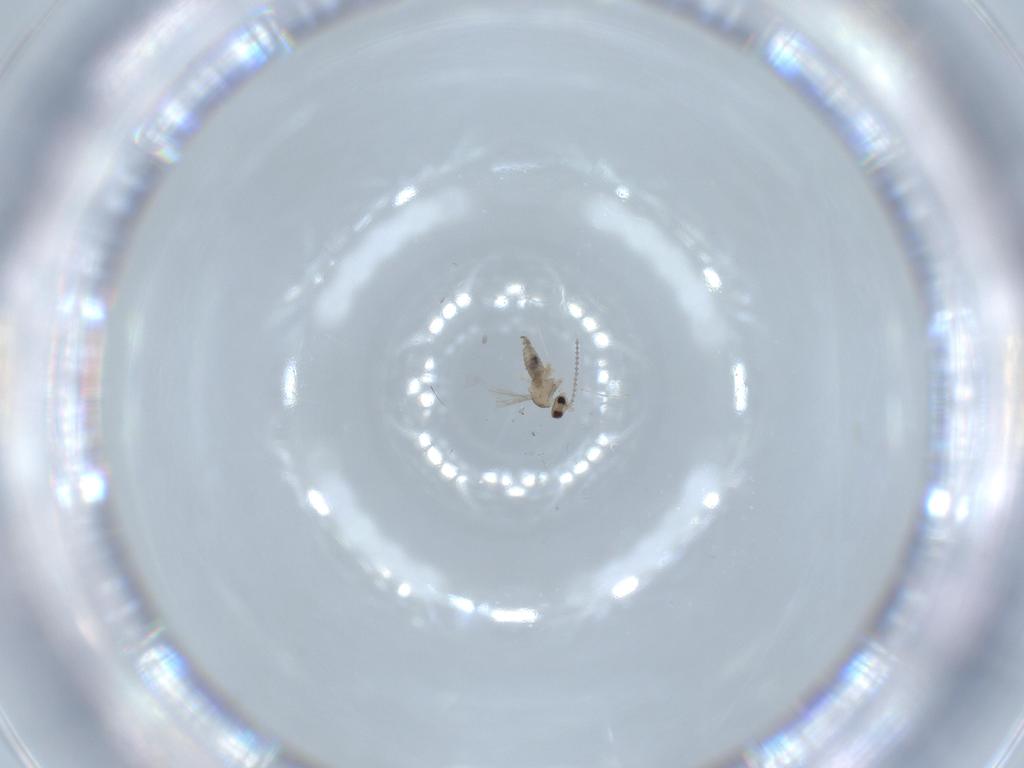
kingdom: Animalia
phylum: Arthropoda
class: Insecta
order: Diptera
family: Cecidomyiidae
